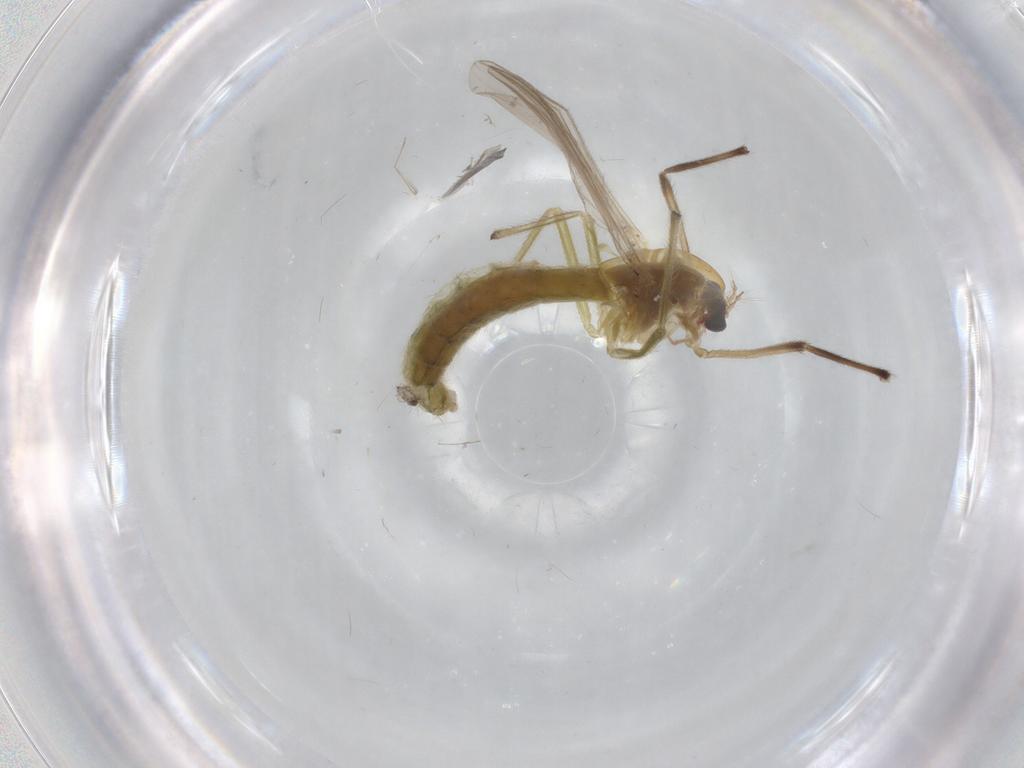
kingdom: Animalia
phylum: Arthropoda
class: Insecta
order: Diptera
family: Chironomidae
